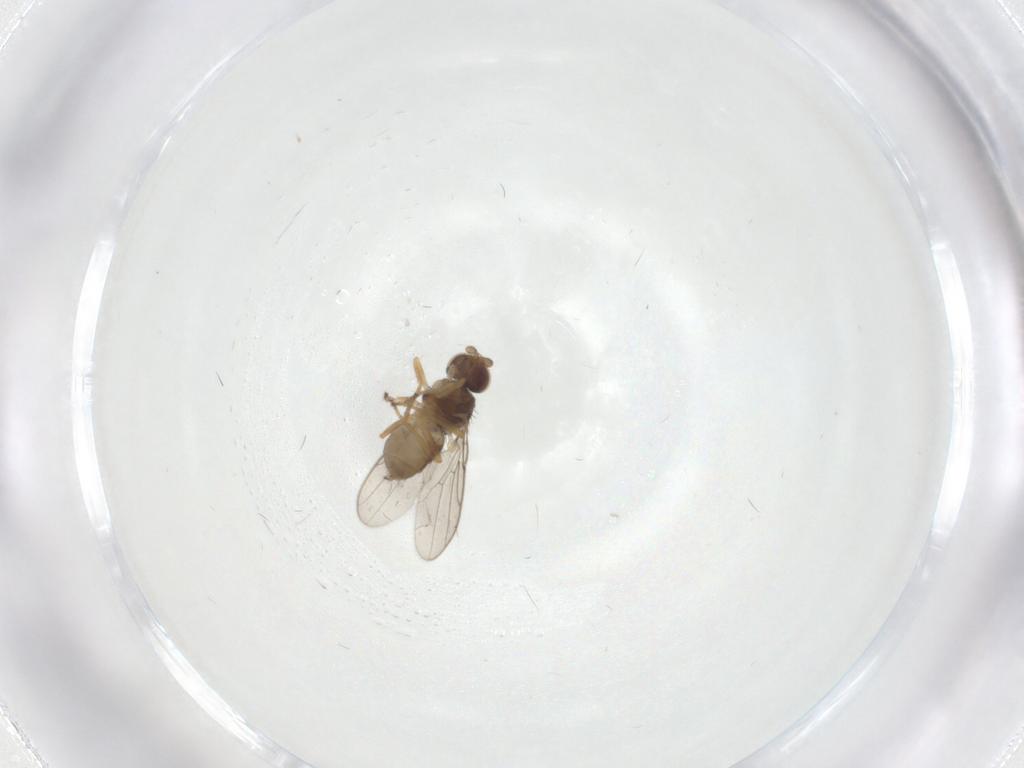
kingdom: Animalia
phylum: Arthropoda
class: Insecta
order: Diptera
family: Chloropidae
